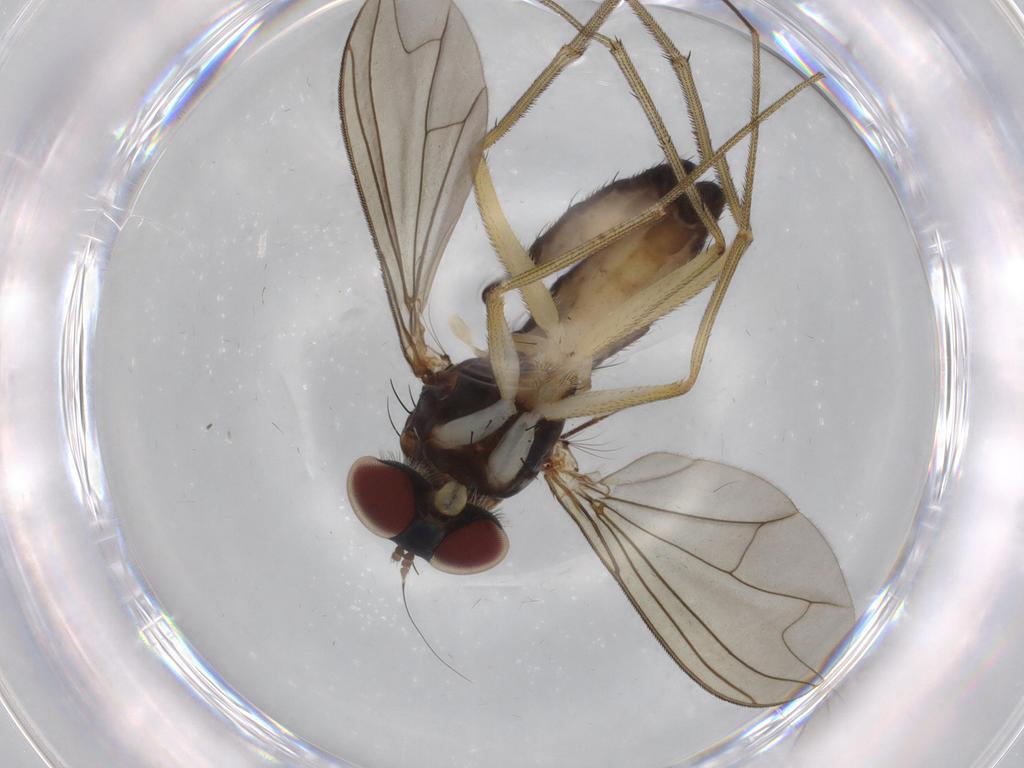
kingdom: Animalia
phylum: Arthropoda
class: Insecta
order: Diptera
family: Dolichopodidae
